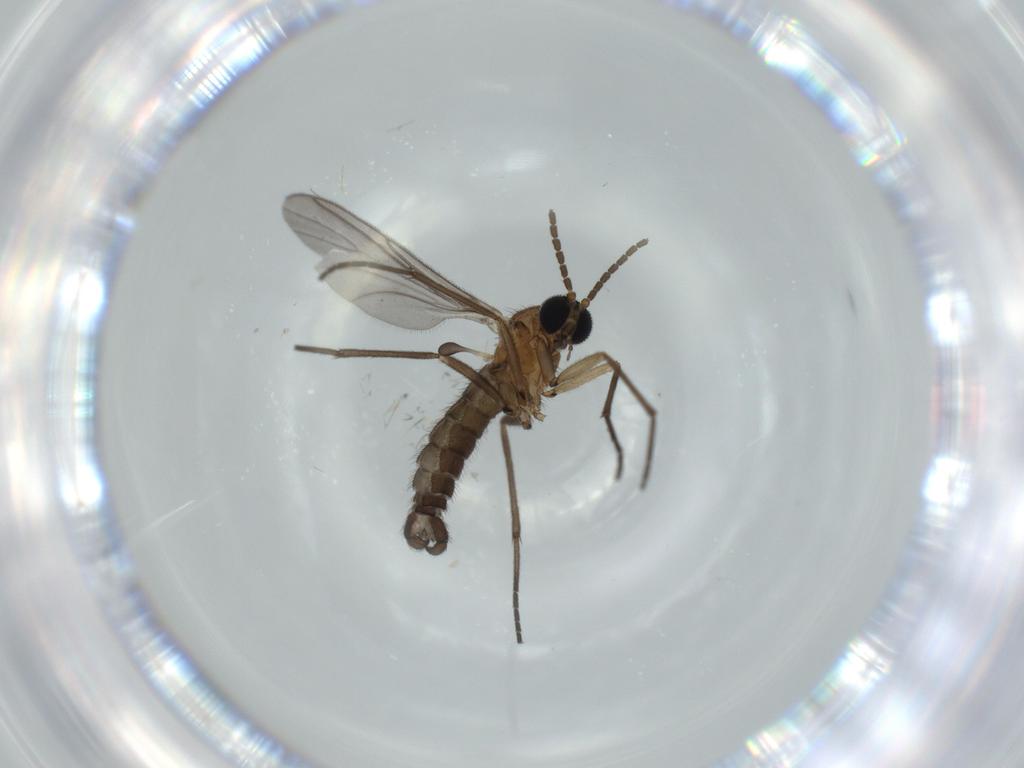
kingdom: Animalia
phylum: Arthropoda
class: Insecta
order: Diptera
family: Sciaridae
